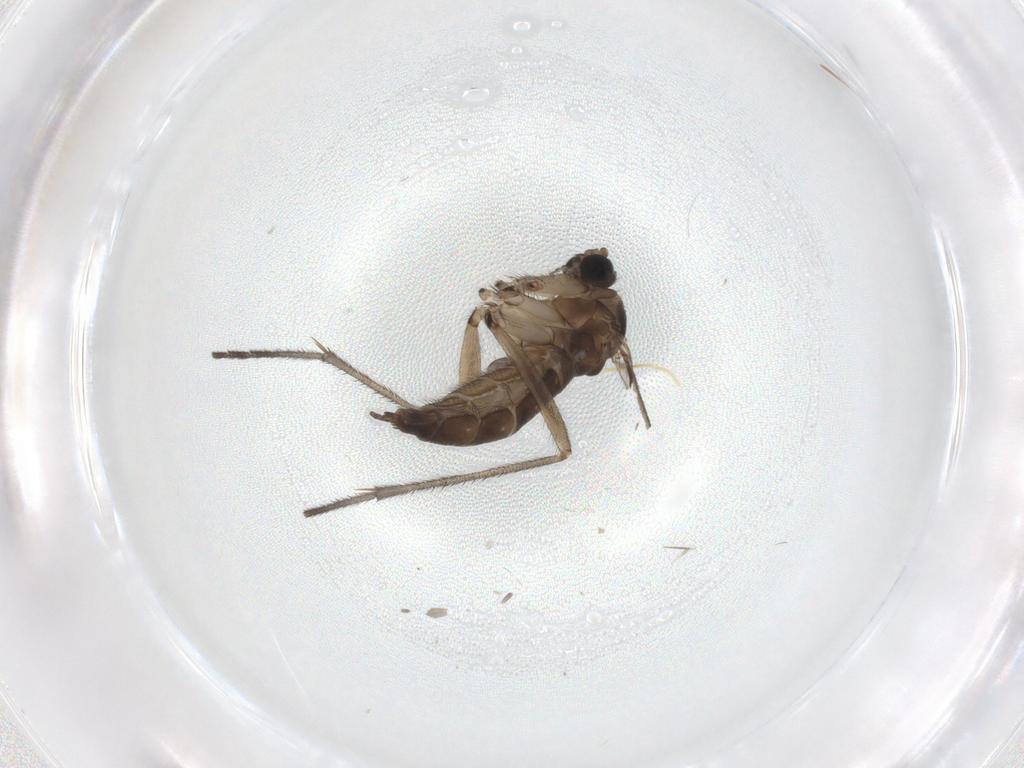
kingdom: Animalia
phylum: Arthropoda
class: Insecta
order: Diptera
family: Sciaridae
